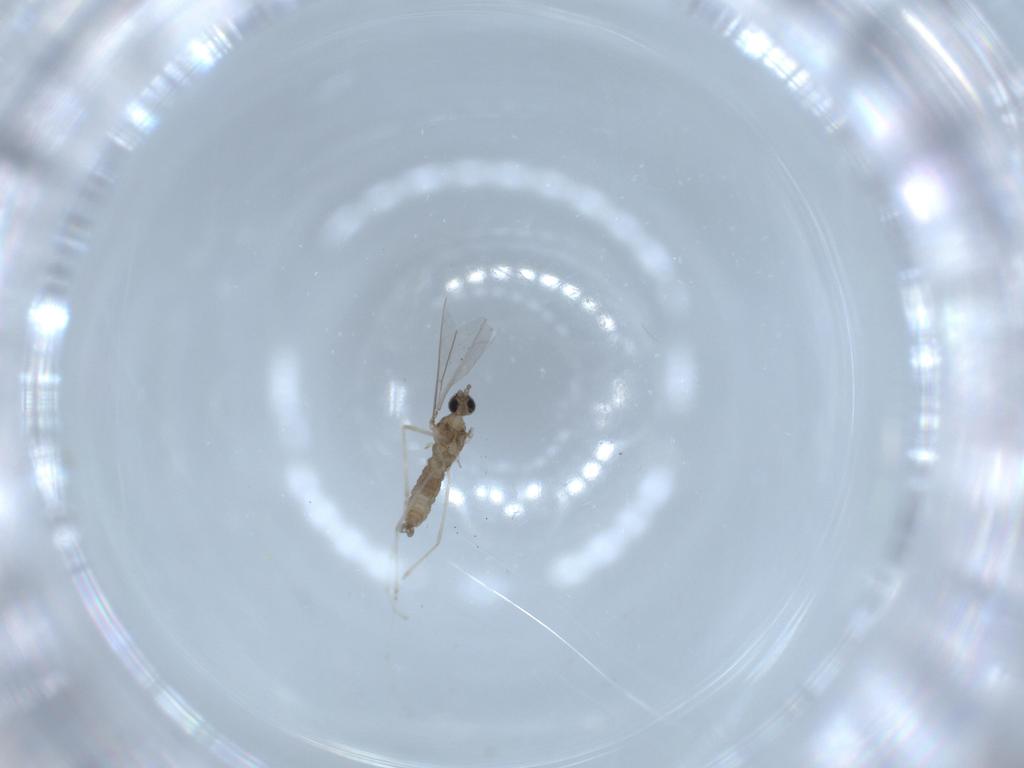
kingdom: Animalia
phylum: Arthropoda
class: Insecta
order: Diptera
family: Cecidomyiidae
